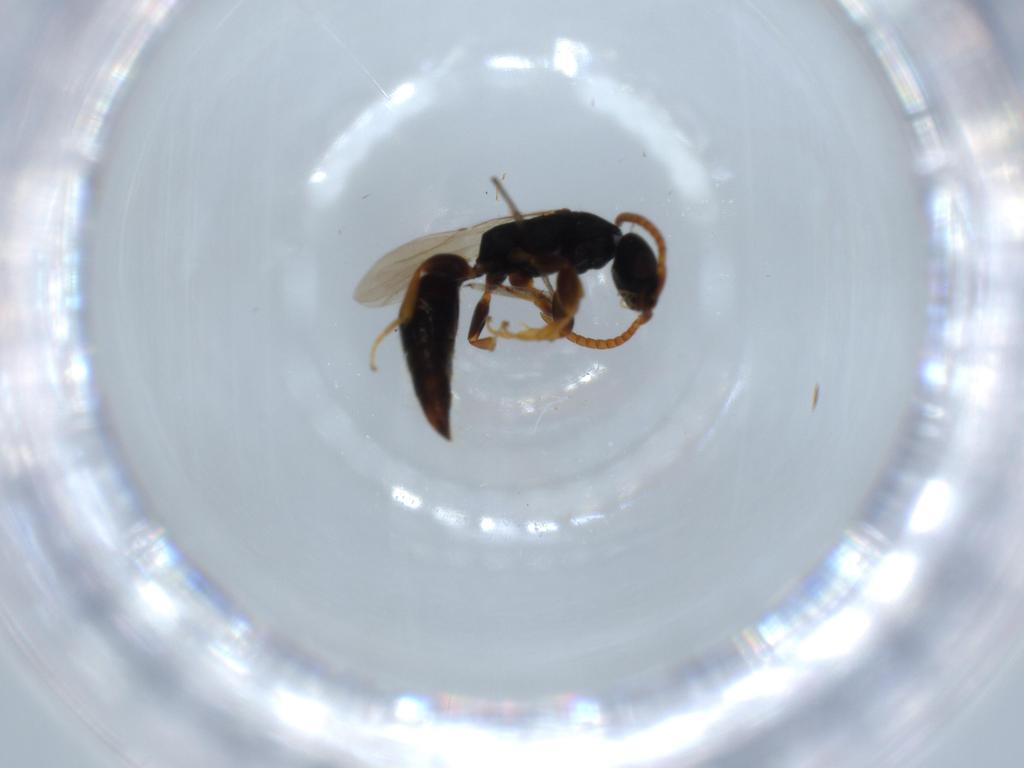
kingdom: Animalia
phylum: Arthropoda
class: Insecta
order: Hymenoptera
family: Bethylidae
